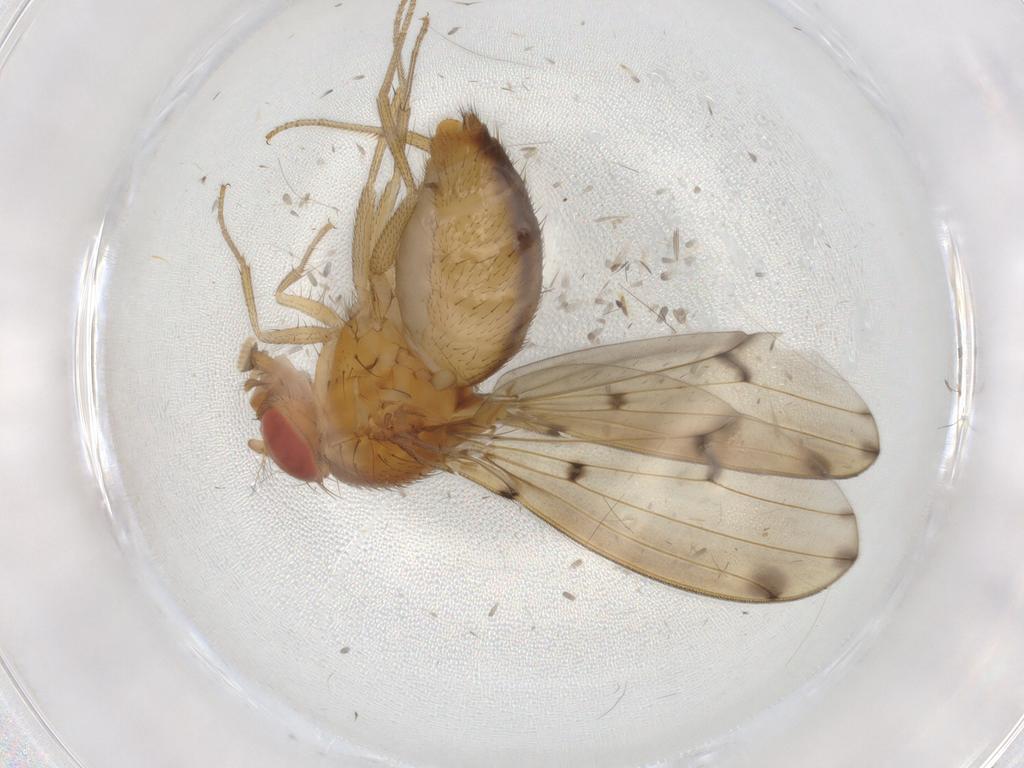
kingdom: Animalia
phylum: Arthropoda
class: Insecta
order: Diptera
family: Drosophilidae
